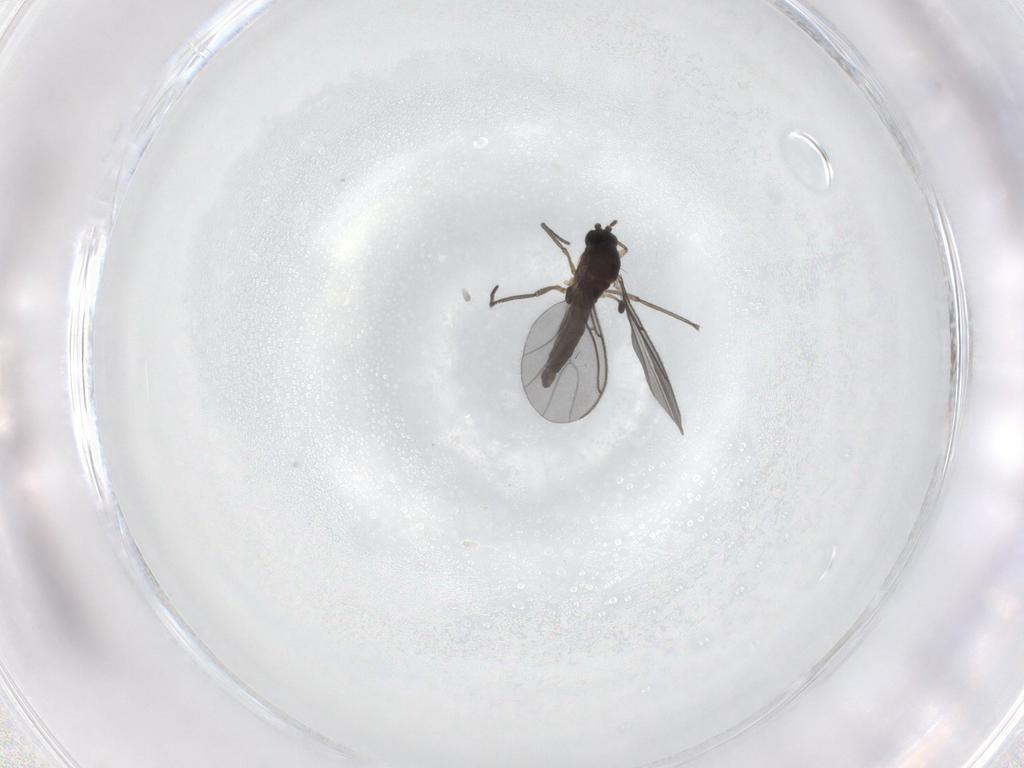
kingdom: Animalia
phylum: Arthropoda
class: Insecta
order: Diptera
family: Sciaridae
